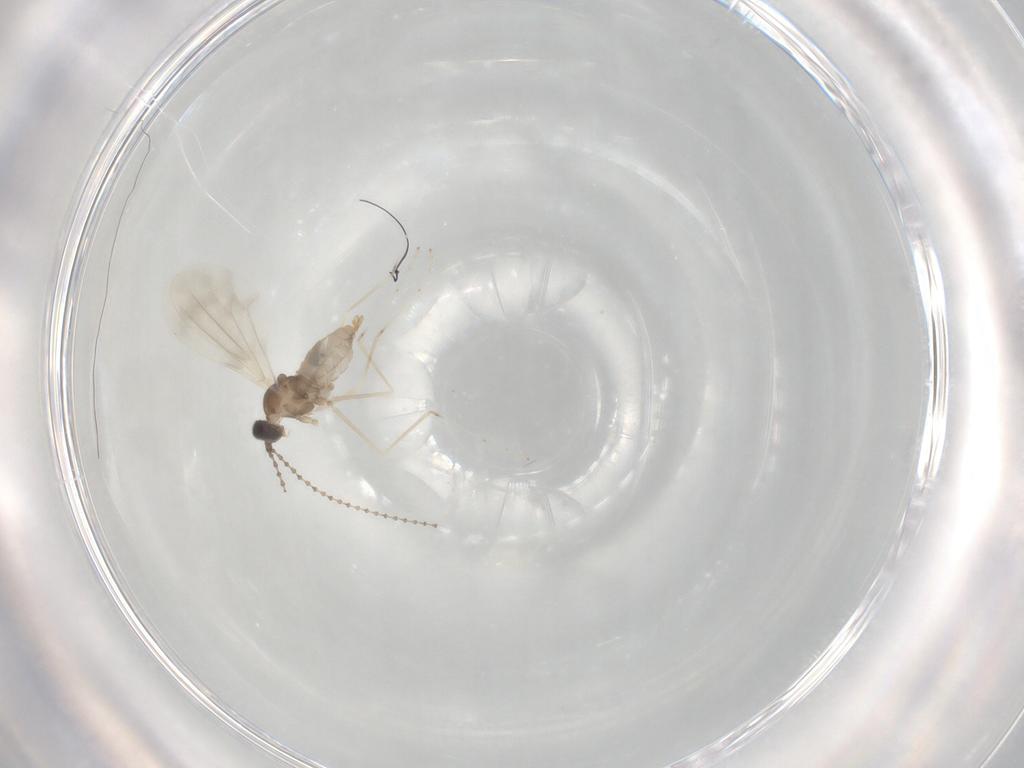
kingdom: Animalia
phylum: Arthropoda
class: Insecta
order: Diptera
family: Cecidomyiidae
